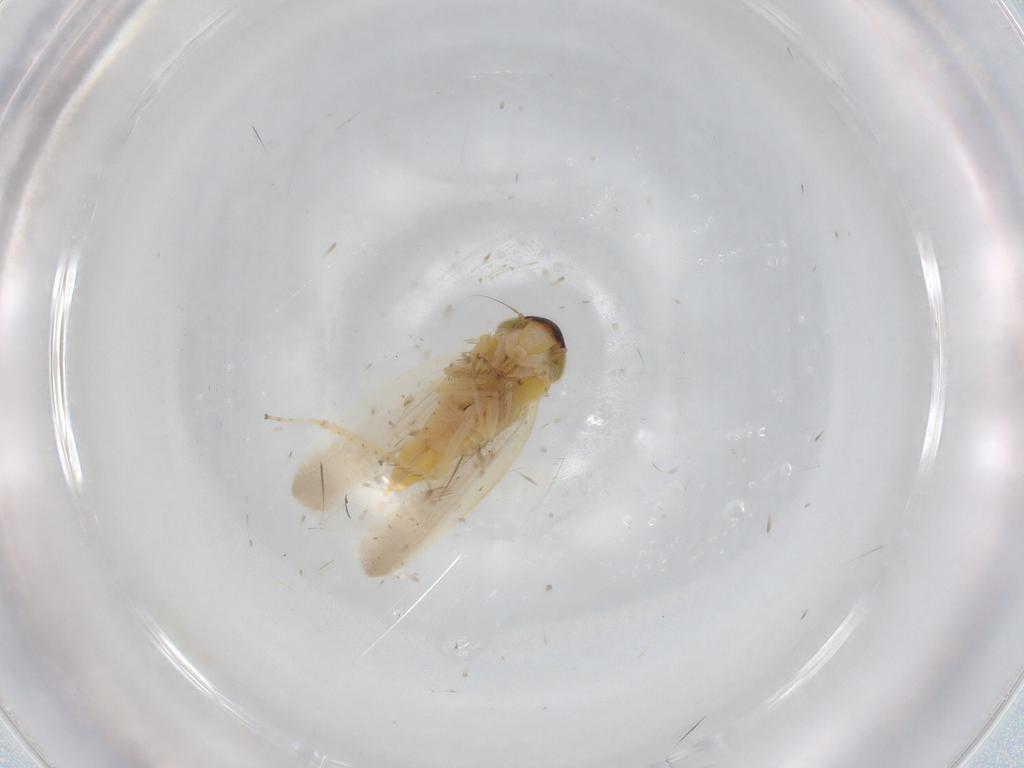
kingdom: Animalia
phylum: Arthropoda
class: Insecta
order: Hemiptera
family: Cicadellidae
